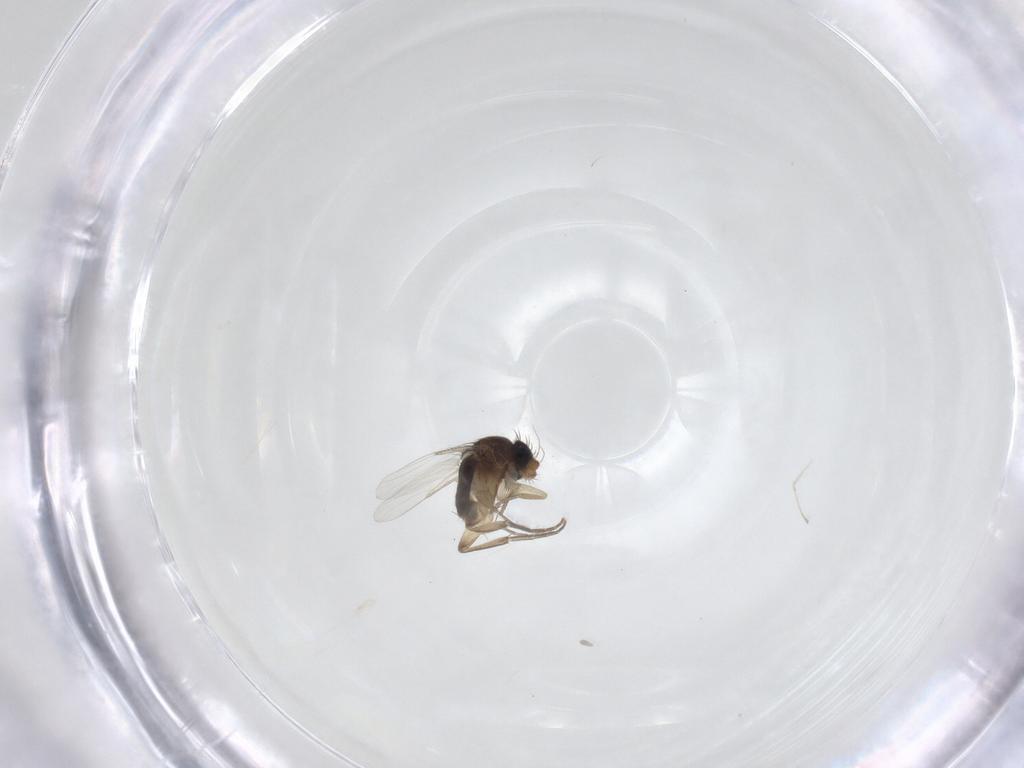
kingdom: Animalia
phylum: Arthropoda
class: Insecta
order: Diptera
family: Phoridae
